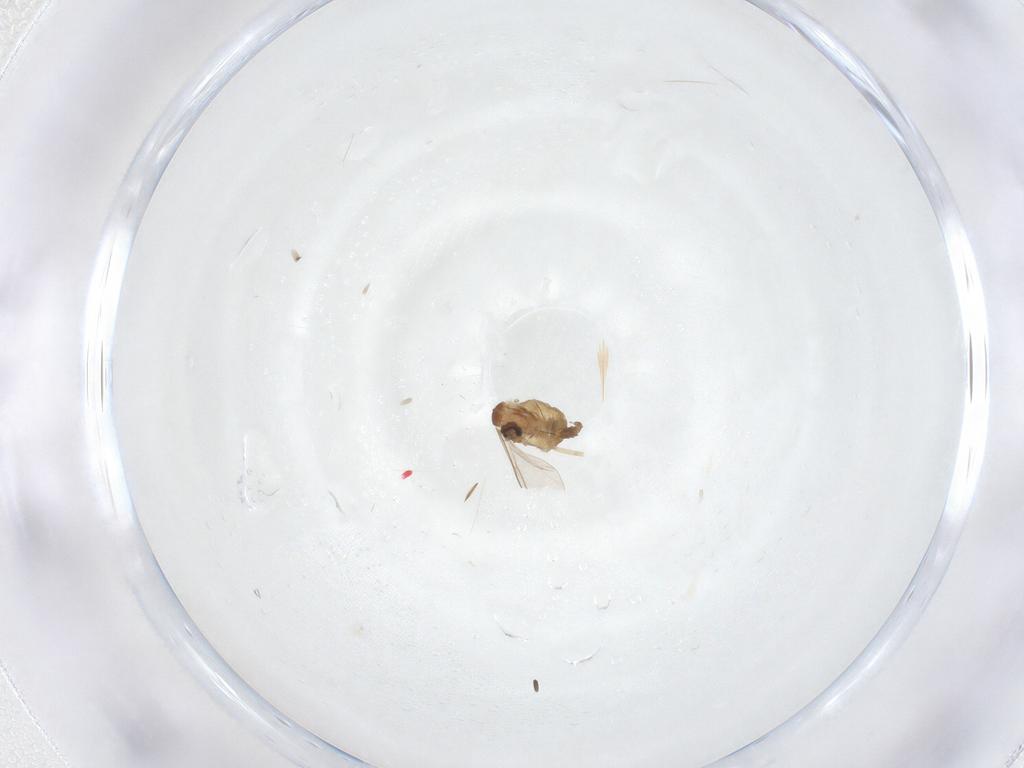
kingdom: Animalia
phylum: Arthropoda
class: Insecta
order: Diptera
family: Cecidomyiidae
